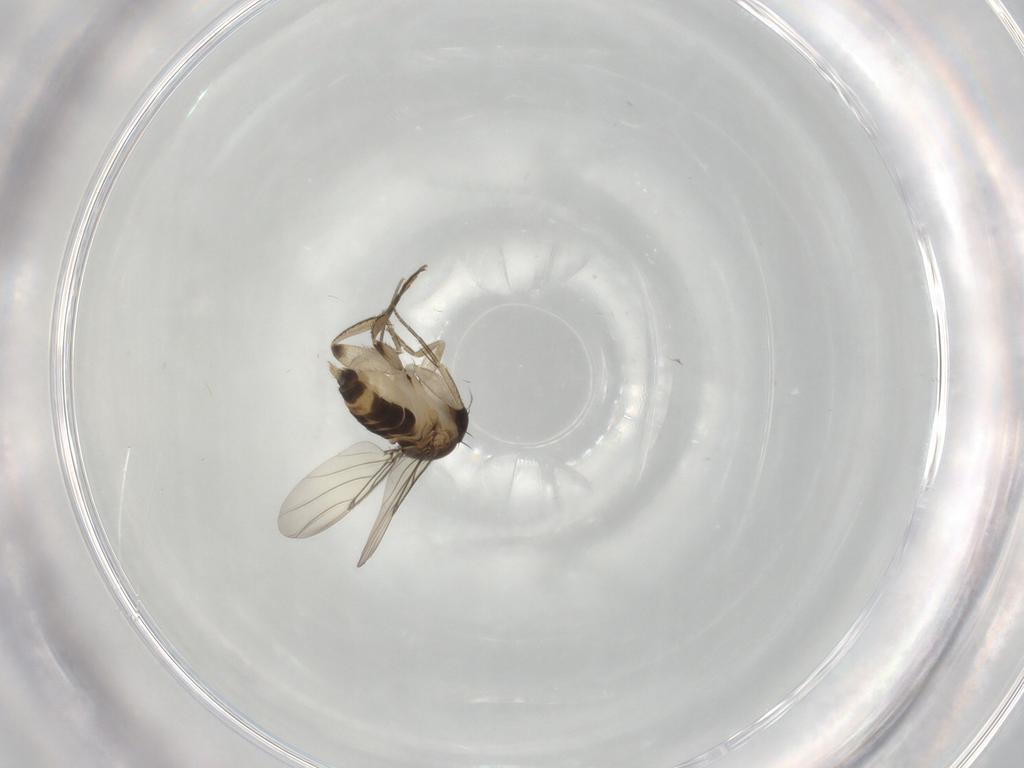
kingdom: Animalia
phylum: Arthropoda
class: Insecta
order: Diptera
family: Phoridae
